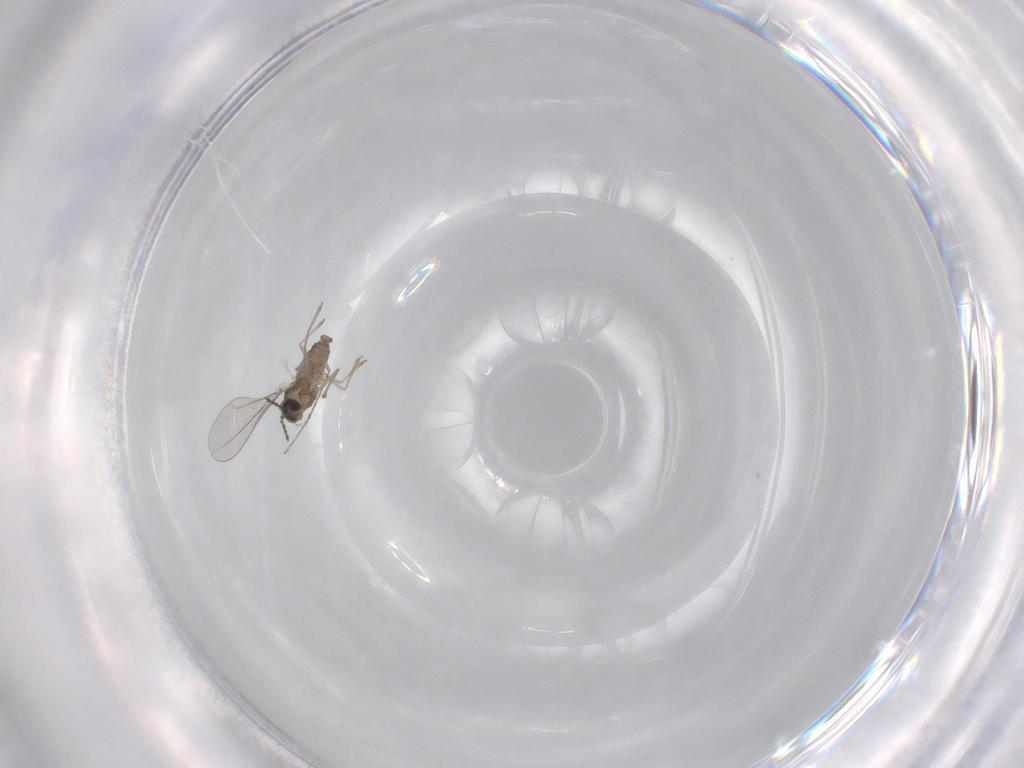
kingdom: Animalia
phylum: Arthropoda
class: Insecta
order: Diptera
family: Ceratopogonidae
